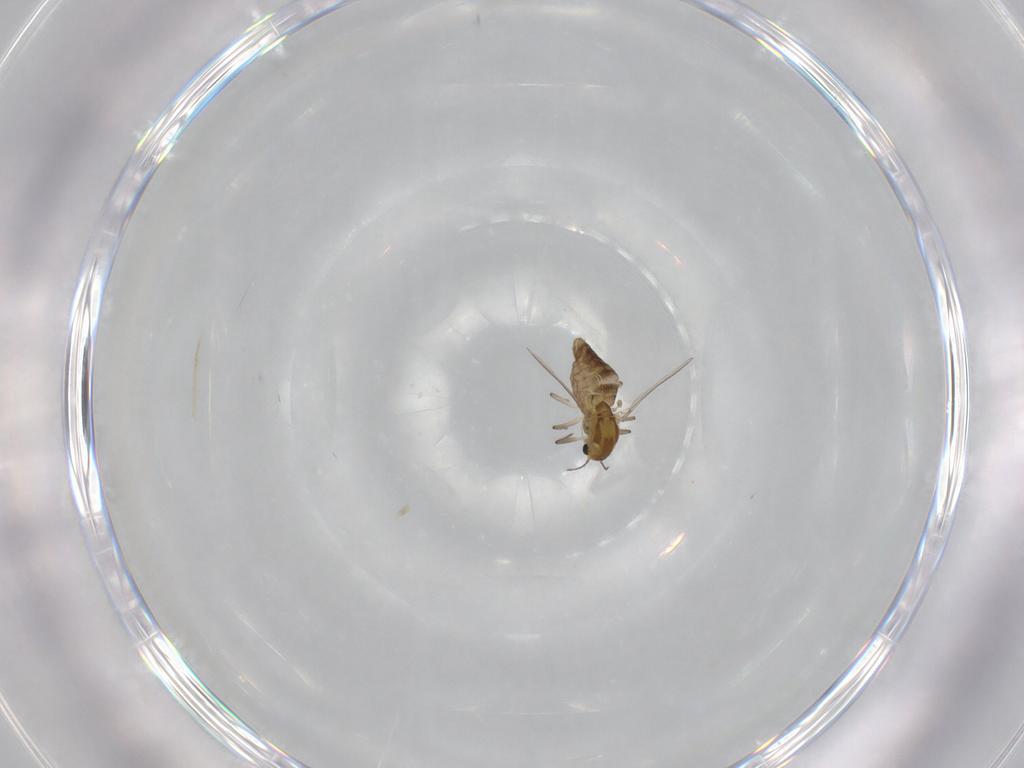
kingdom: Animalia
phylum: Arthropoda
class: Insecta
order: Diptera
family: Chironomidae
